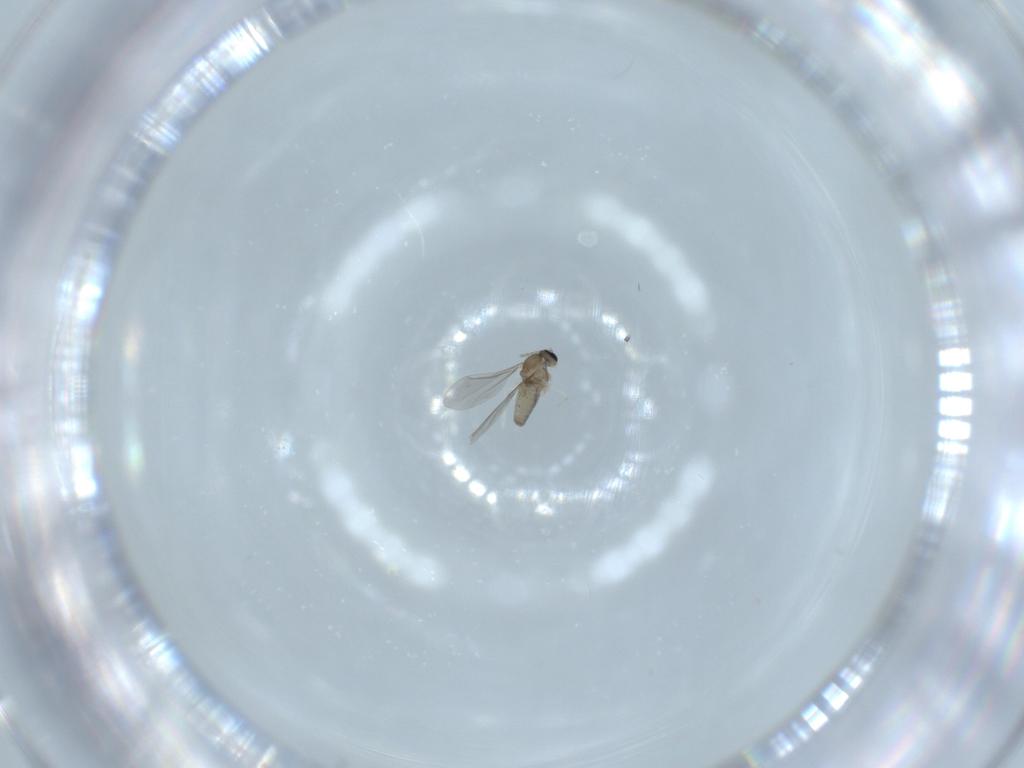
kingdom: Animalia
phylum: Arthropoda
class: Insecta
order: Diptera
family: Cecidomyiidae
